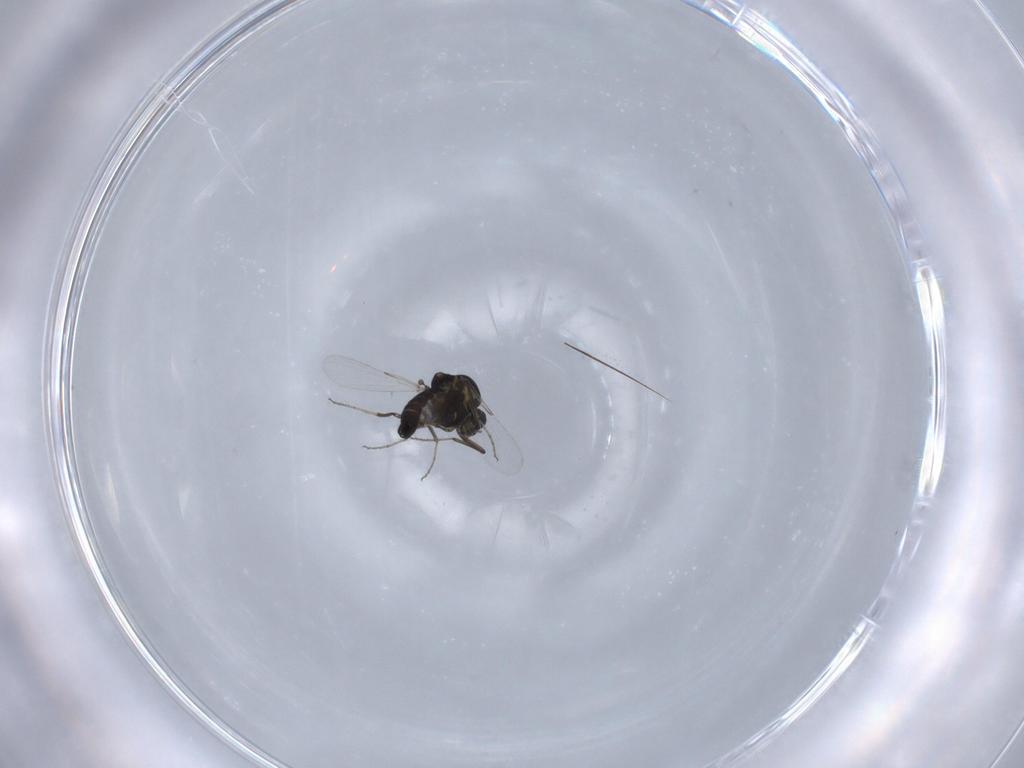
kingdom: Animalia
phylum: Arthropoda
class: Insecta
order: Diptera
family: Ceratopogonidae
